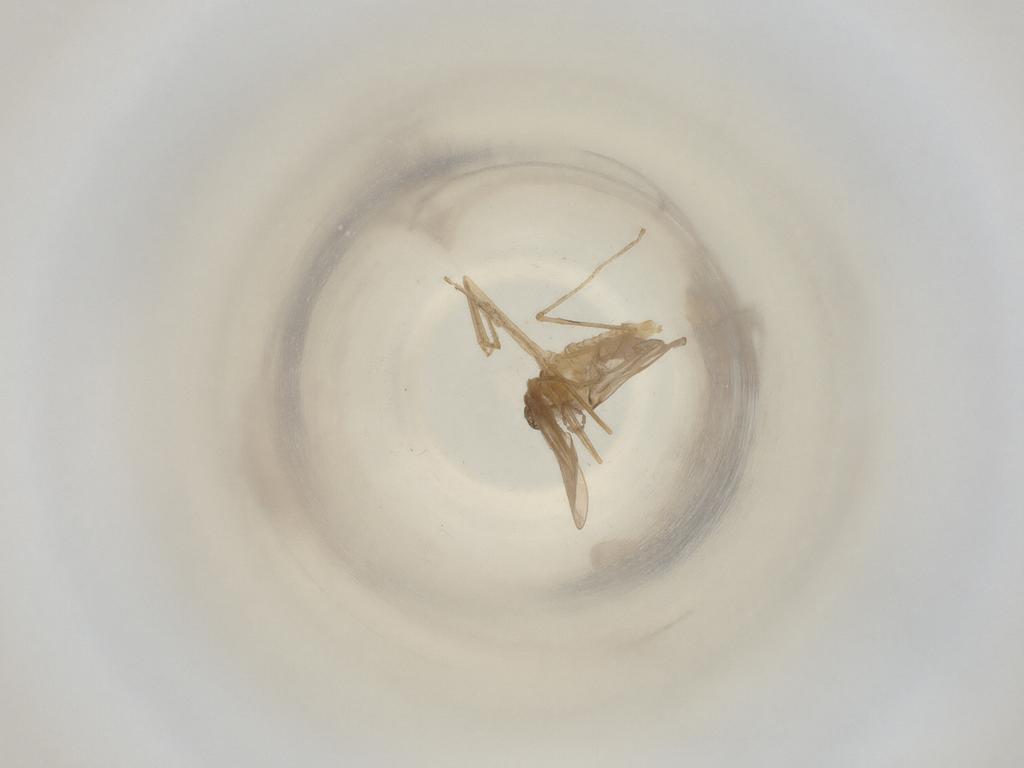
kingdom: Animalia
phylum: Arthropoda
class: Insecta
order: Diptera
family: Cecidomyiidae
